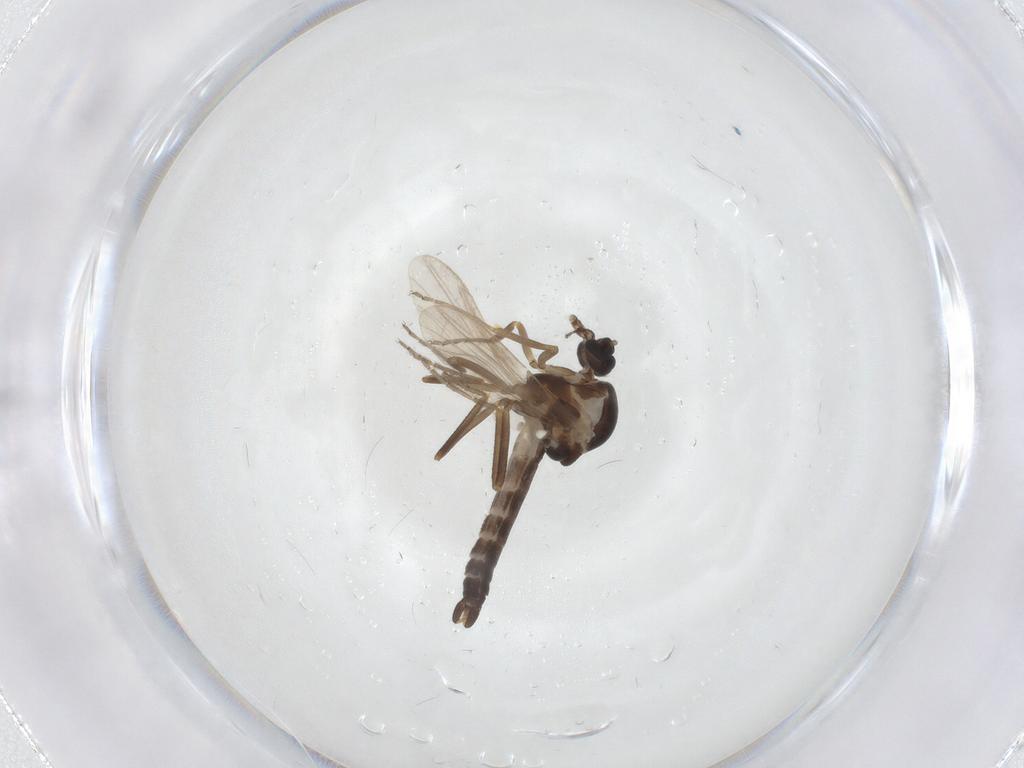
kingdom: Animalia
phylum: Arthropoda
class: Insecta
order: Diptera
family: Ceratopogonidae
